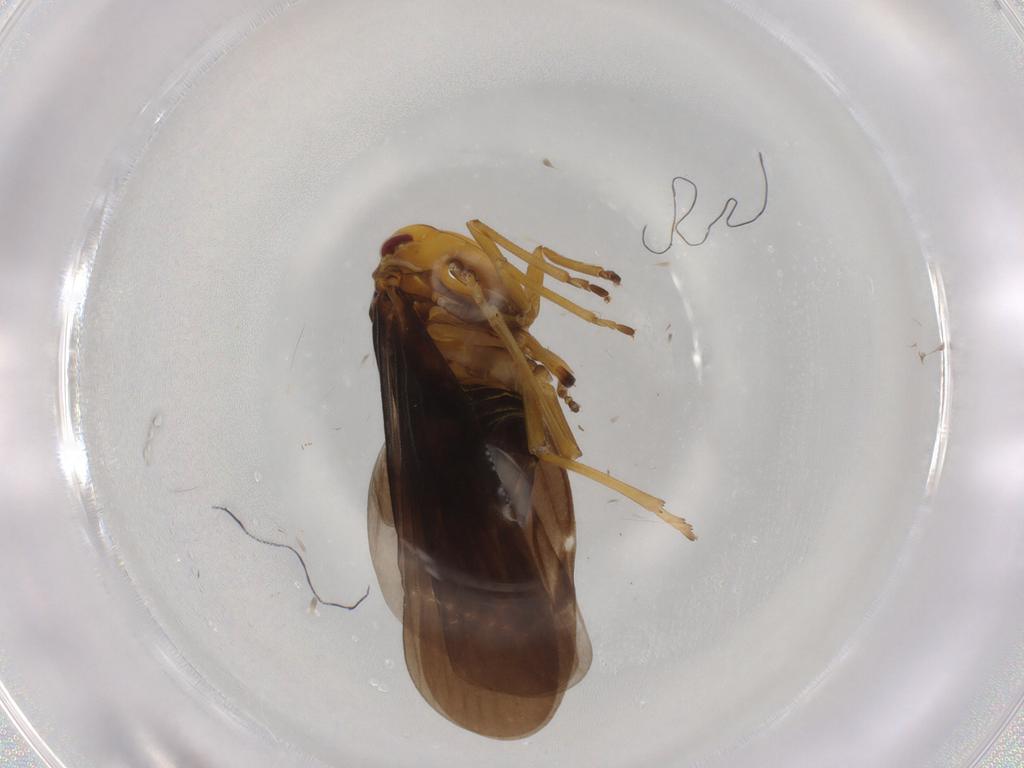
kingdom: Animalia
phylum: Arthropoda
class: Insecta
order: Hemiptera
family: Derbidae
